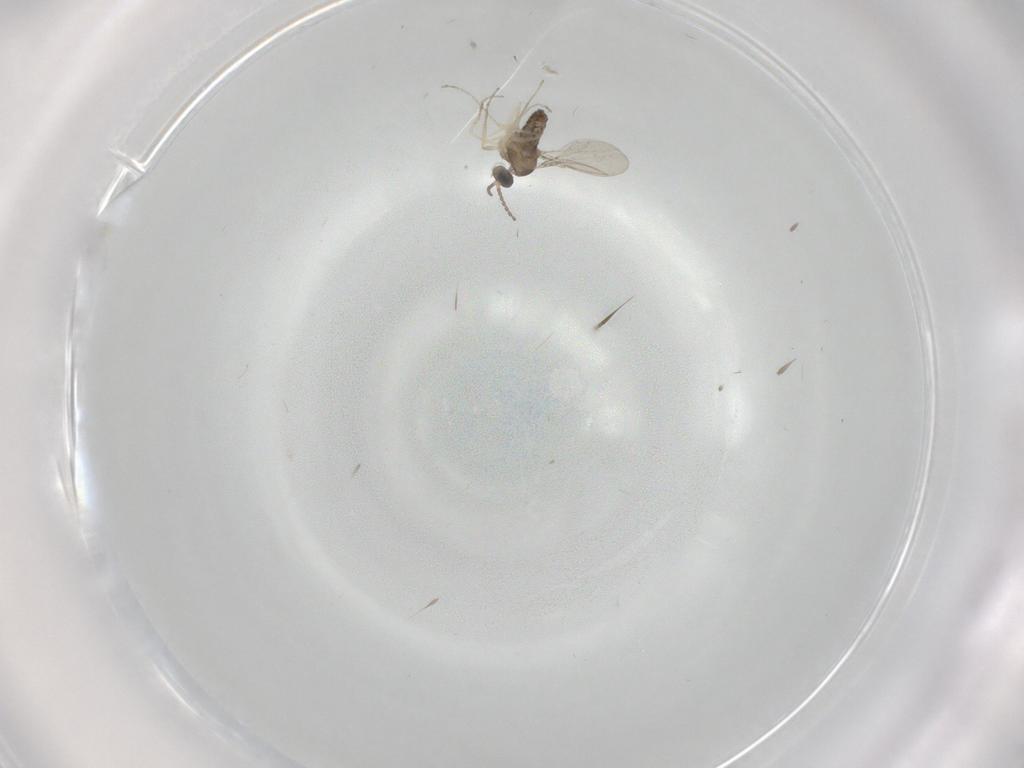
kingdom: Animalia
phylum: Arthropoda
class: Insecta
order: Diptera
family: Cecidomyiidae
